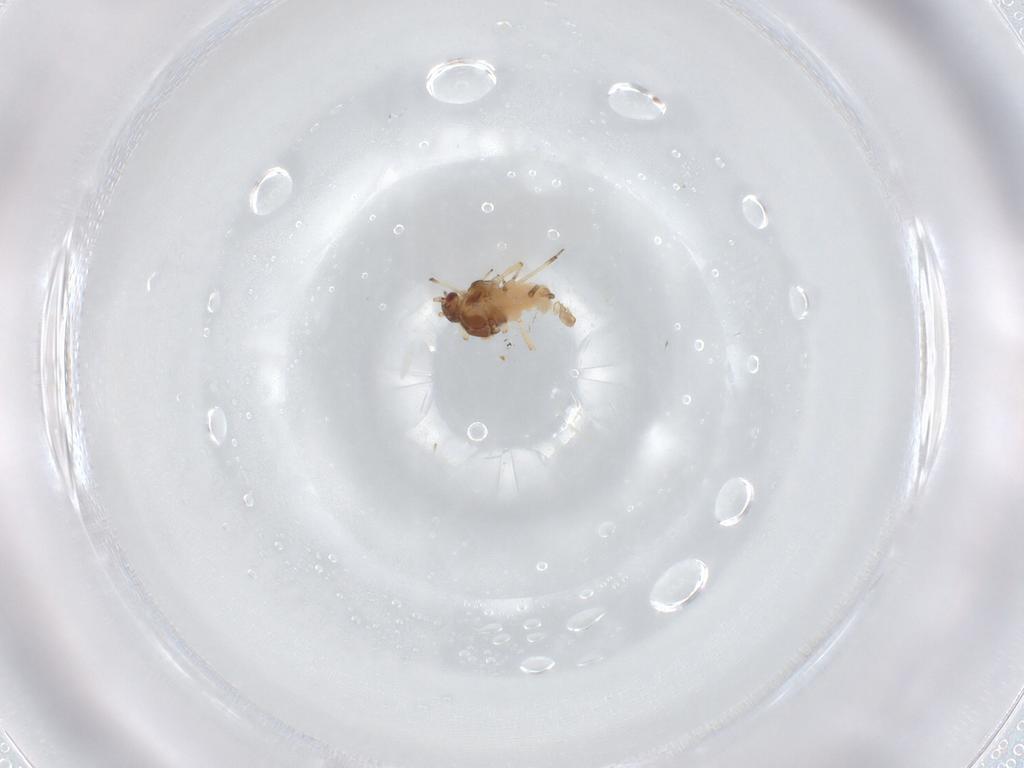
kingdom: Animalia
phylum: Arthropoda
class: Insecta
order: Hemiptera
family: Aphididae
